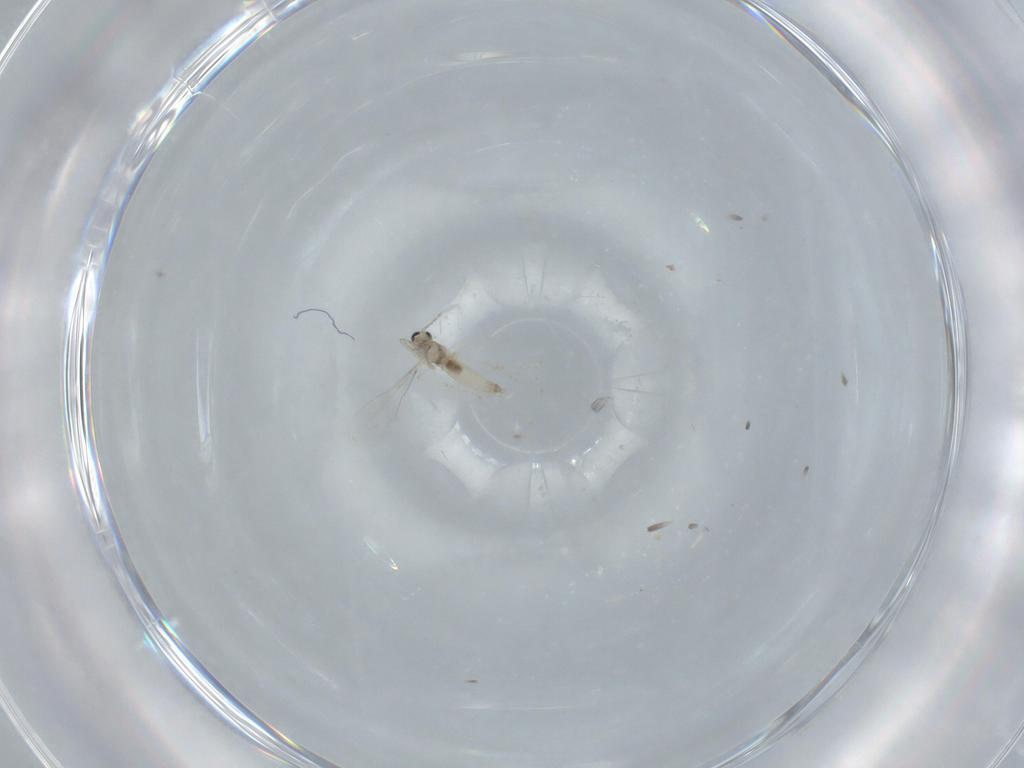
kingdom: Animalia
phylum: Arthropoda
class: Insecta
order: Diptera
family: Cecidomyiidae
